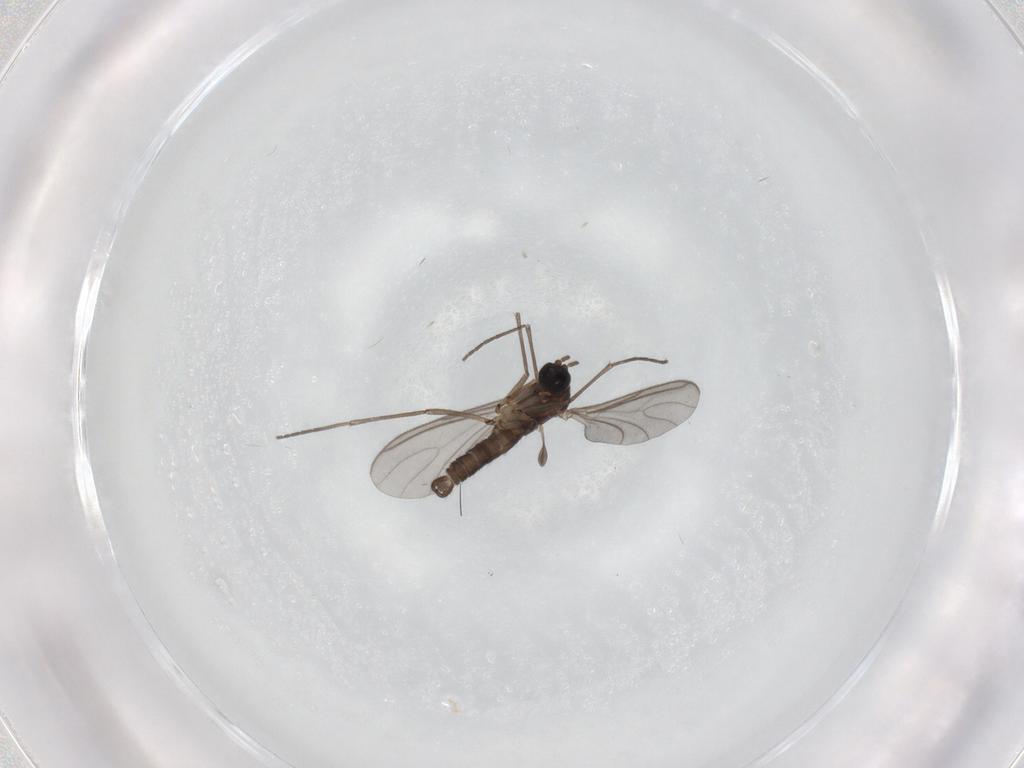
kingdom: Animalia
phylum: Arthropoda
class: Insecta
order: Diptera
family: Sciaridae
